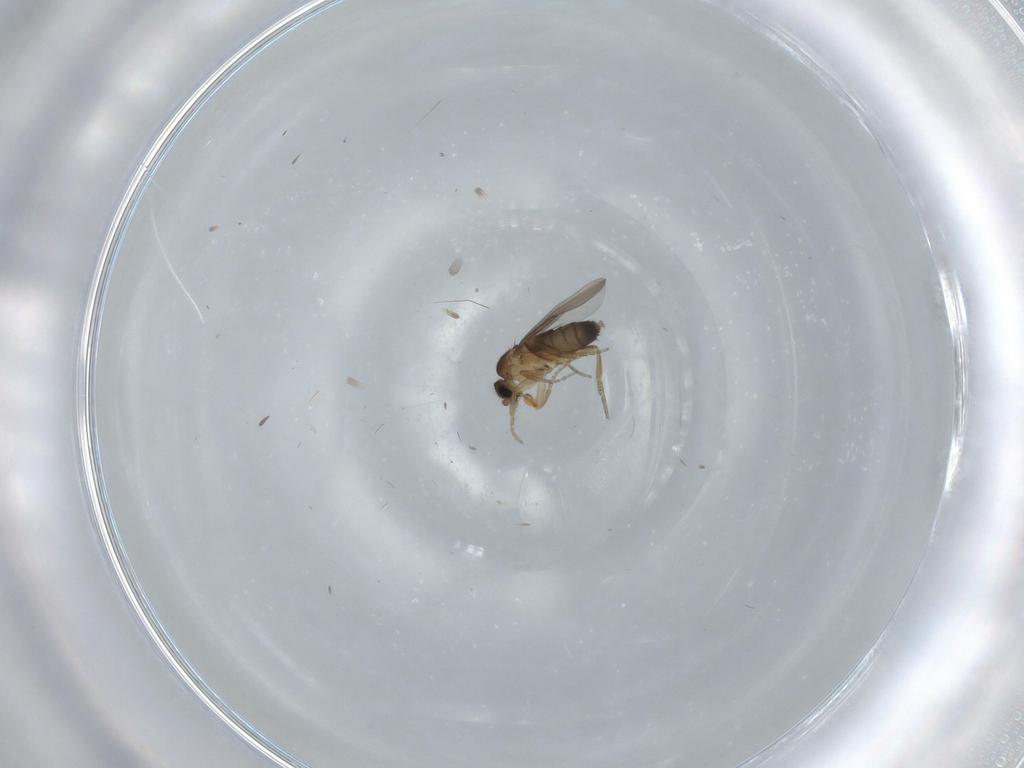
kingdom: Animalia
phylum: Arthropoda
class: Insecta
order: Diptera
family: Phoridae
